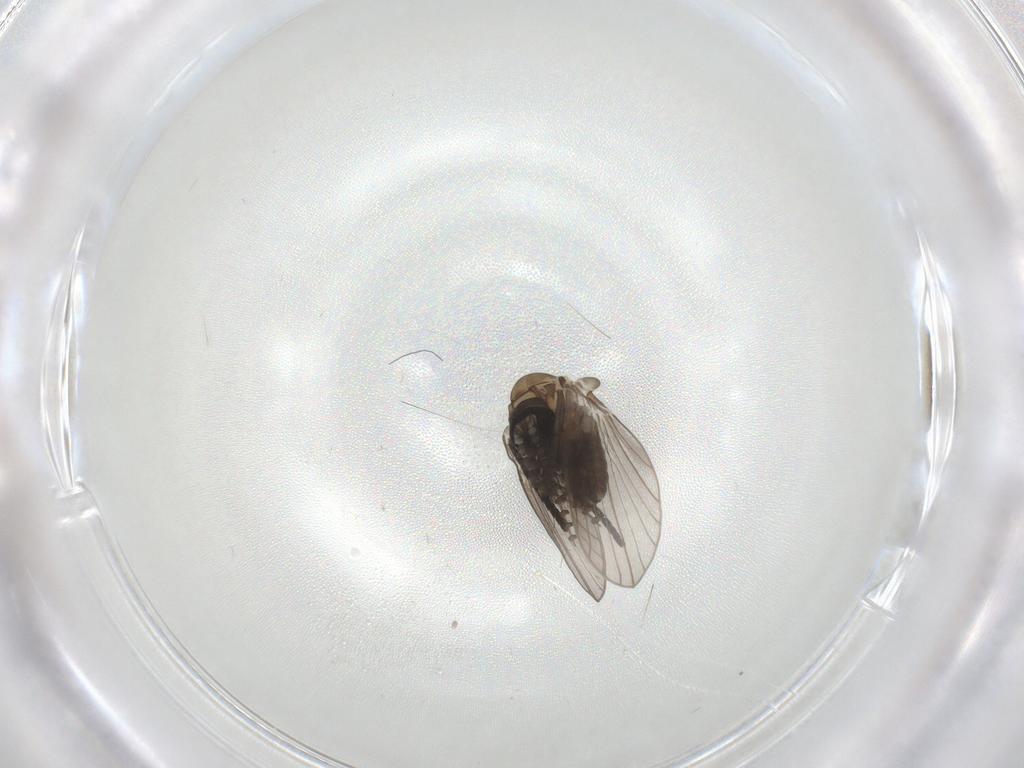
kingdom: Animalia
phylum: Arthropoda
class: Insecta
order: Diptera
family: Psychodidae
